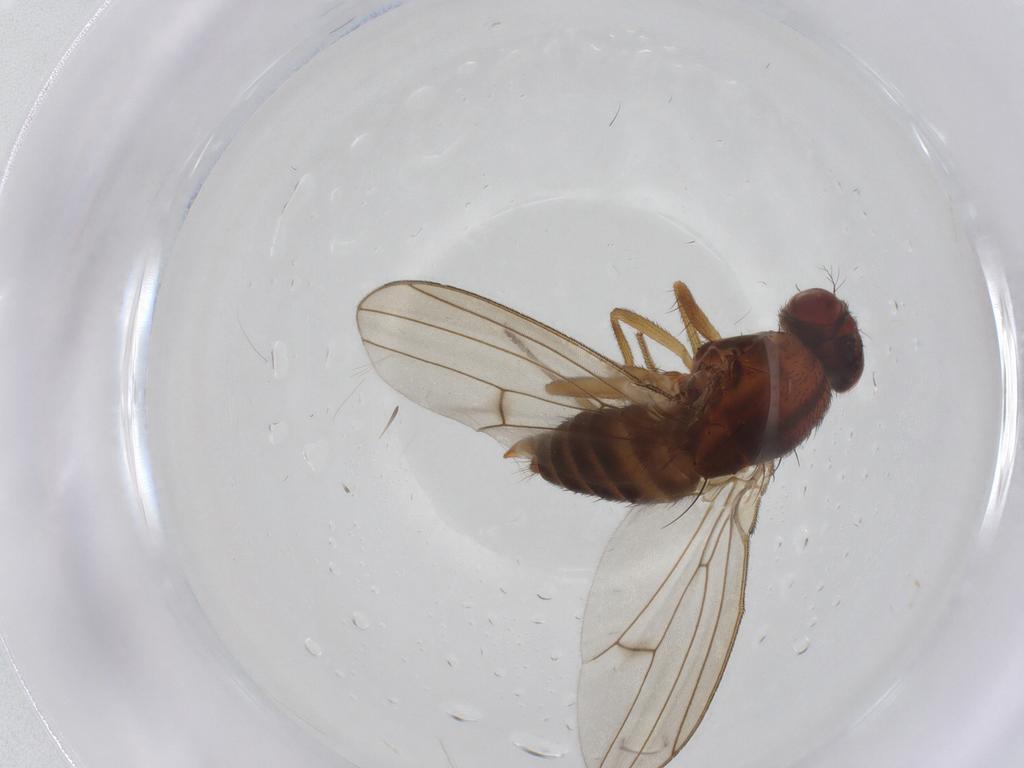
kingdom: Animalia
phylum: Arthropoda
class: Insecta
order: Diptera
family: Drosophilidae
